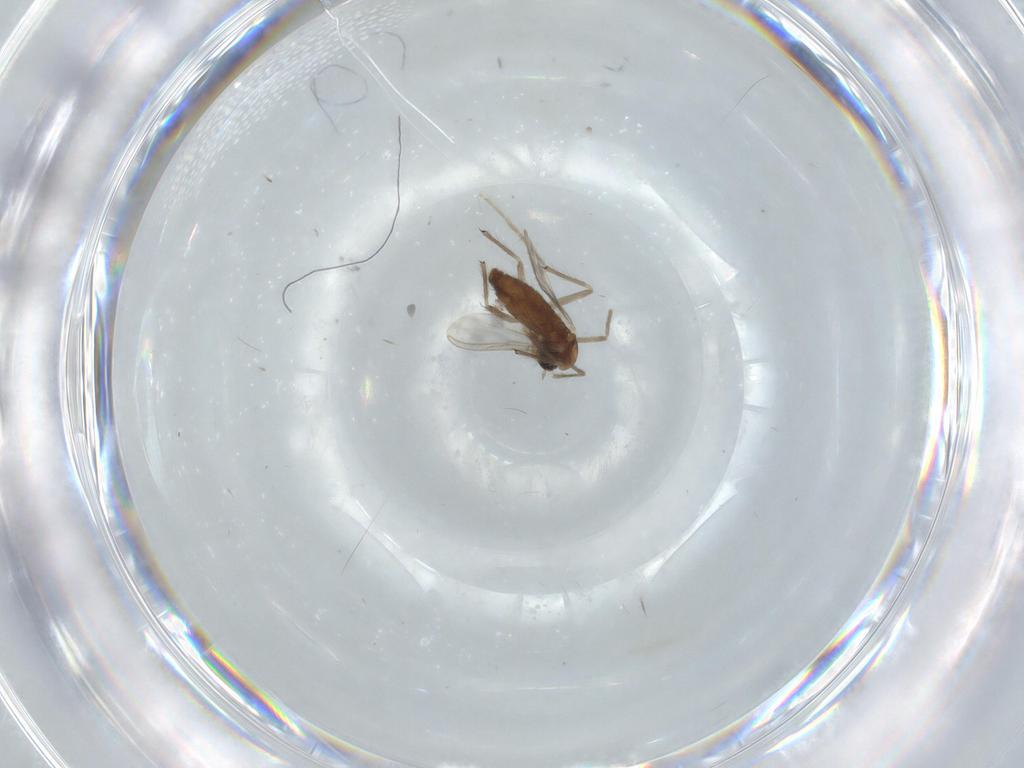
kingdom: Animalia
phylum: Arthropoda
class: Insecta
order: Diptera
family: Chironomidae
